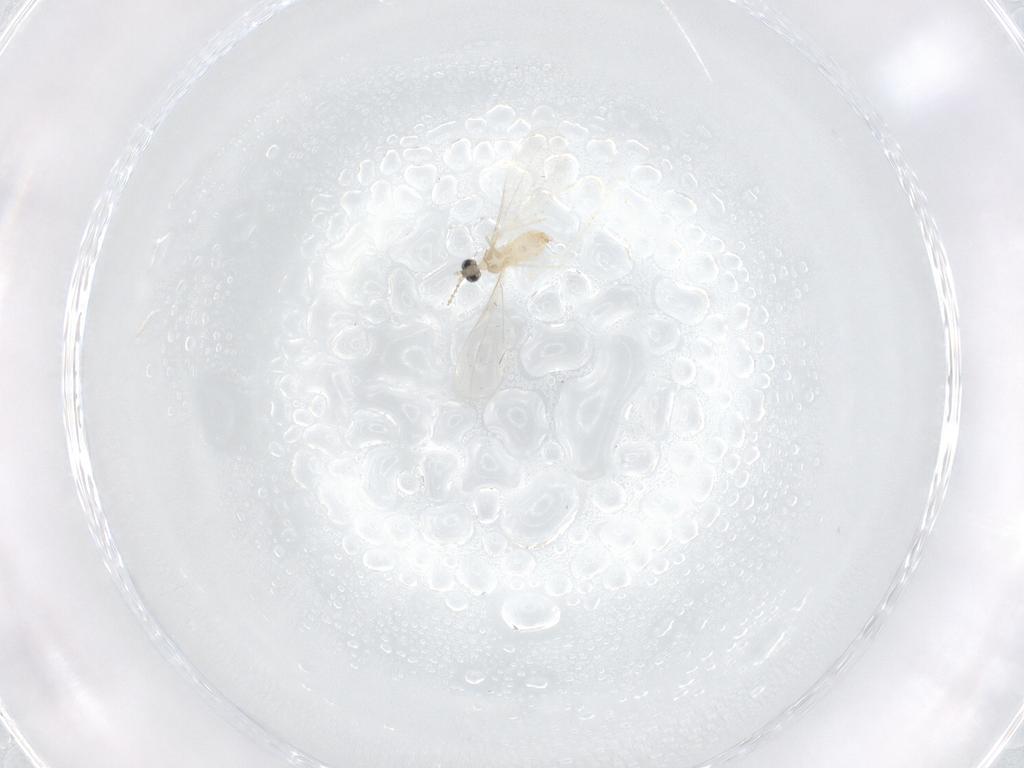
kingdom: Animalia
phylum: Arthropoda
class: Insecta
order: Diptera
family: Cecidomyiidae
